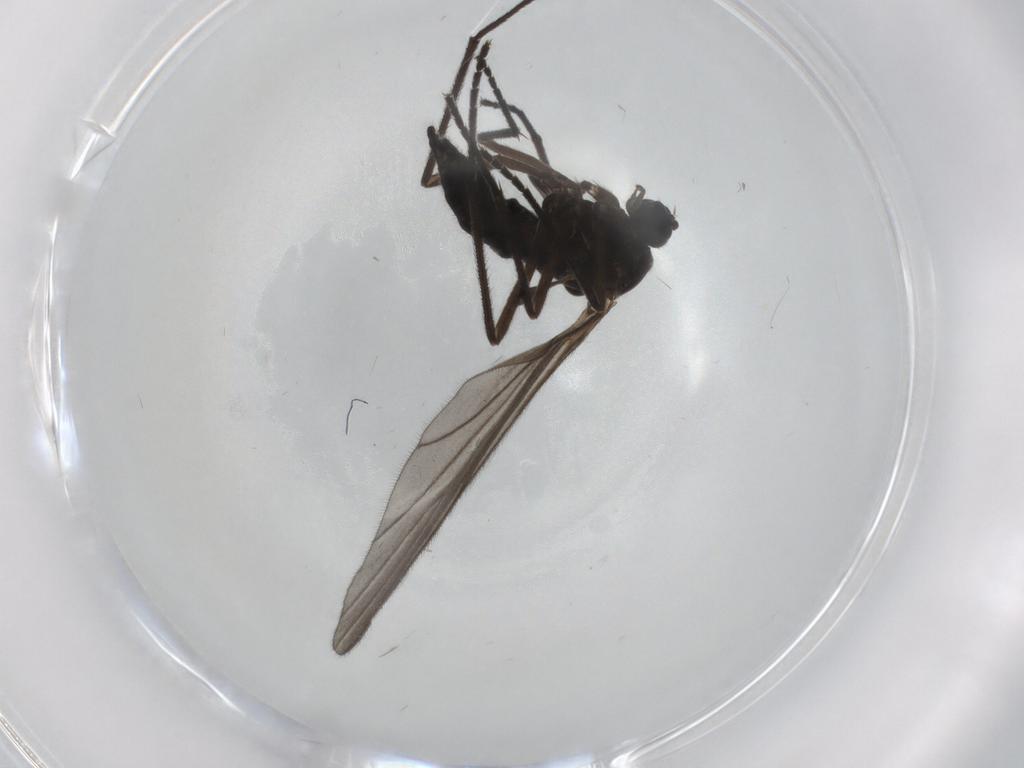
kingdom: Animalia
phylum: Arthropoda
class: Insecta
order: Diptera
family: Sciaridae
